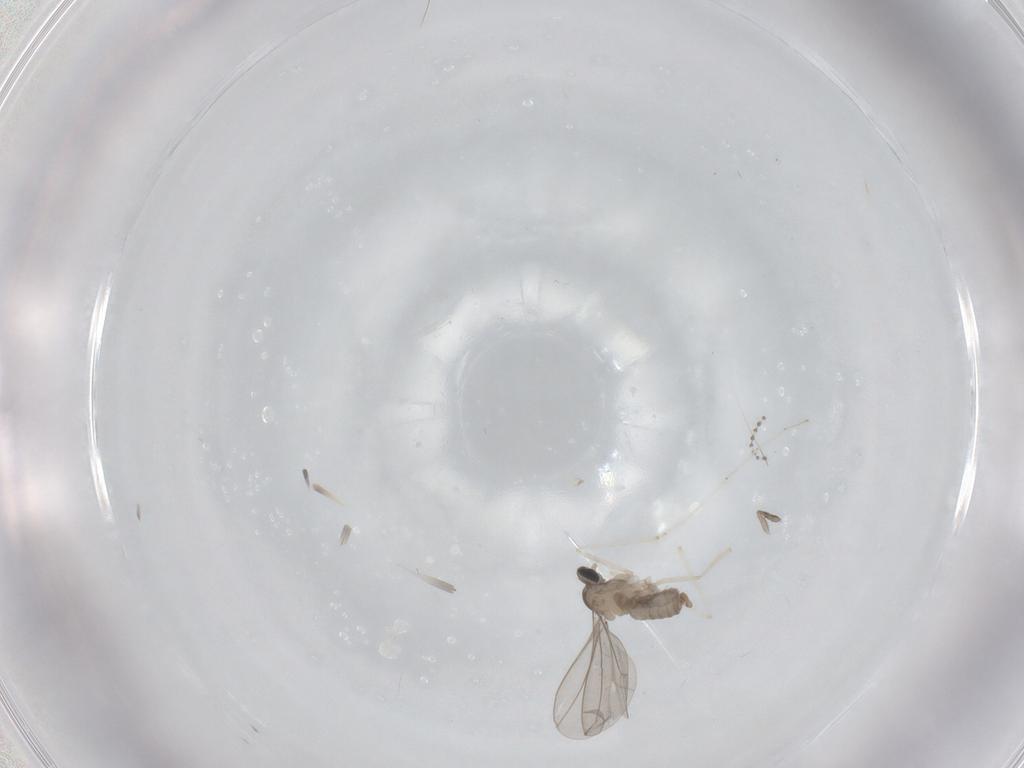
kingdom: Animalia
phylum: Arthropoda
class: Insecta
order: Diptera
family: Cecidomyiidae
